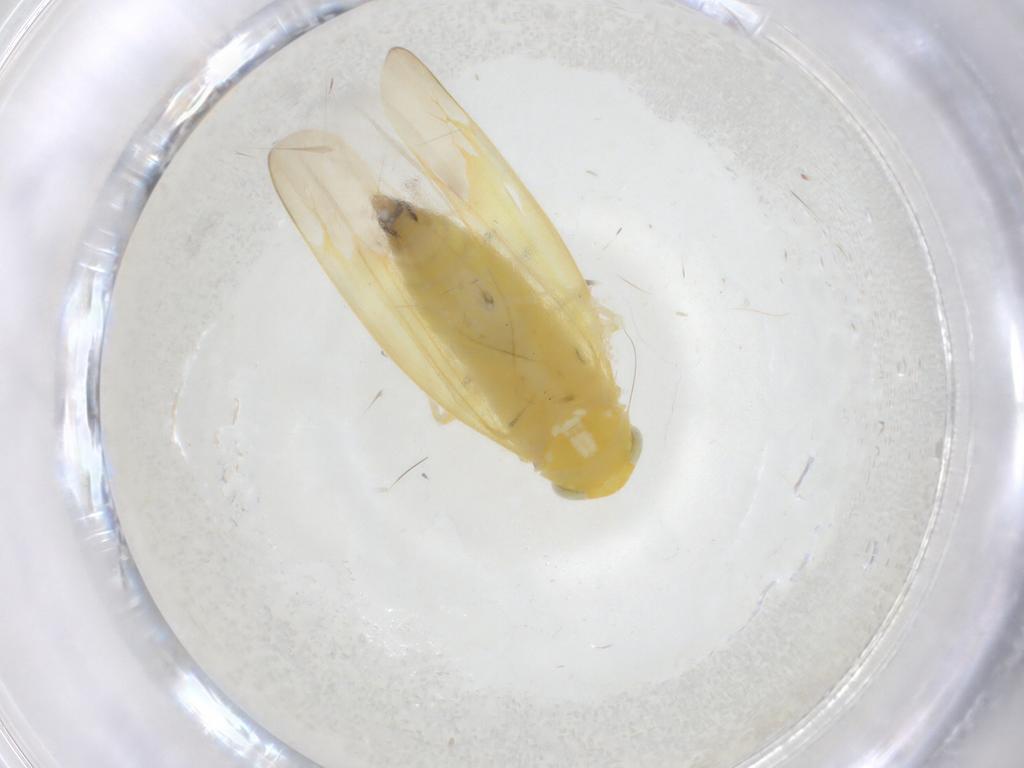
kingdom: Animalia
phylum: Arthropoda
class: Insecta
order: Hemiptera
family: Cicadellidae
